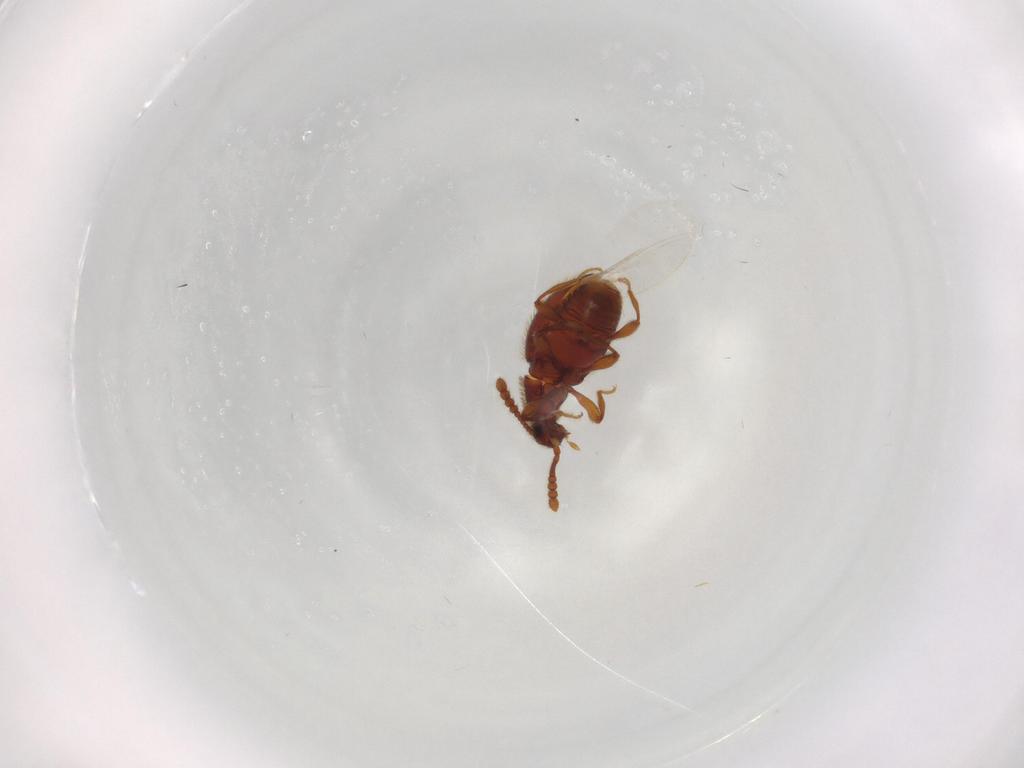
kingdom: Animalia
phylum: Arthropoda
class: Insecta
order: Coleoptera
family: Staphylinidae
